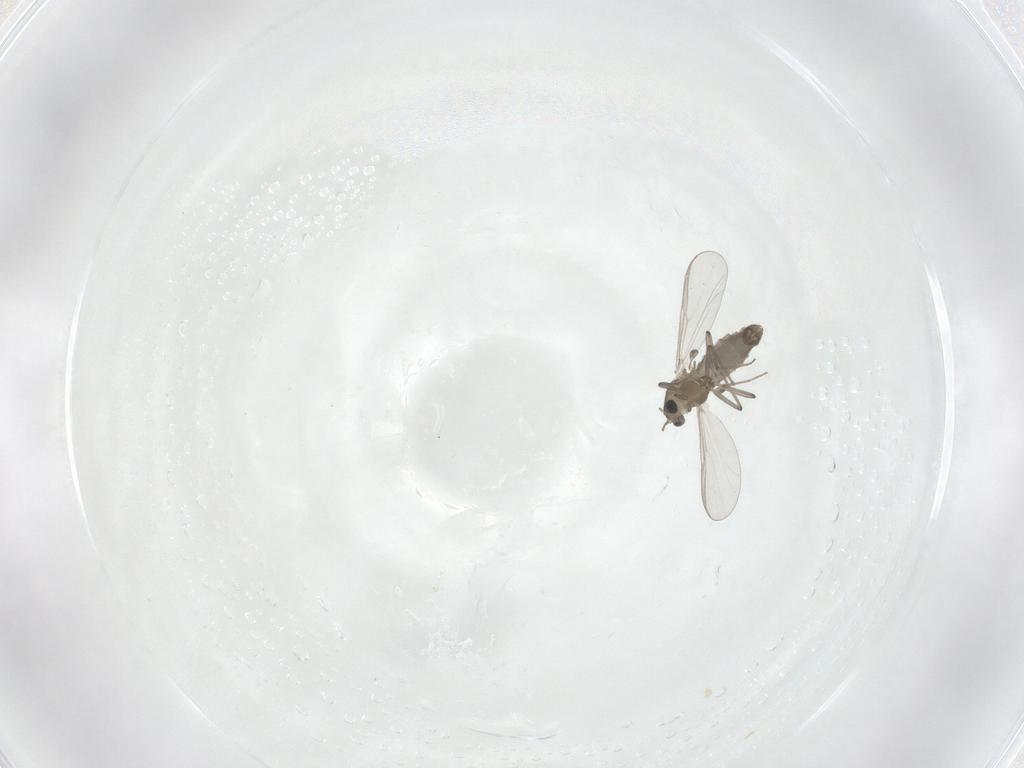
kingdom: Animalia
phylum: Arthropoda
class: Insecta
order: Diptera
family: Chironomidae
